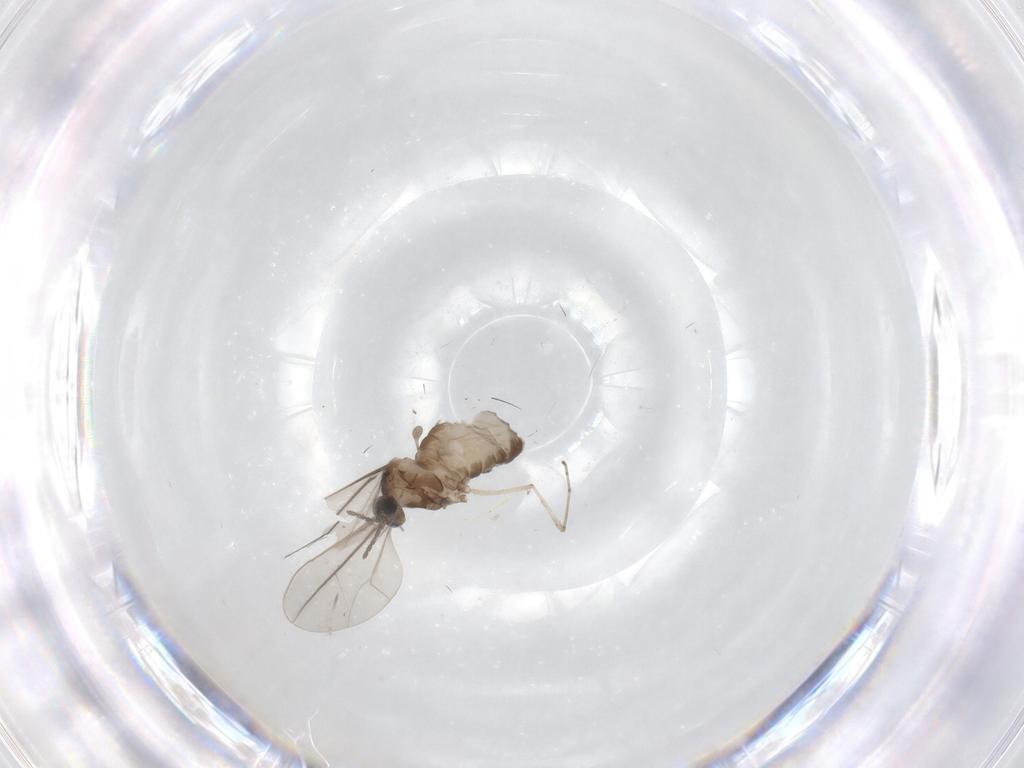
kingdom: Animalia
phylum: Arthropoda
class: Insecta
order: Diptera
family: Cecidomyiidae
